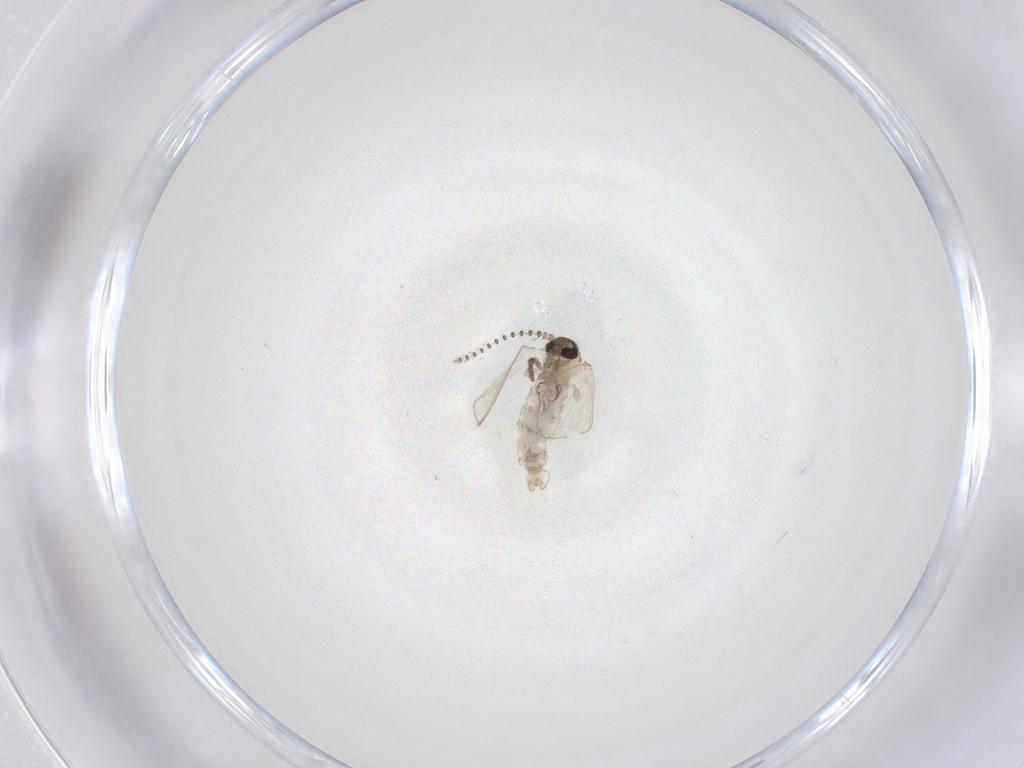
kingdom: Animalia
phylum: Arthropoda
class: Insecta
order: Diptera
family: Psychodidae
